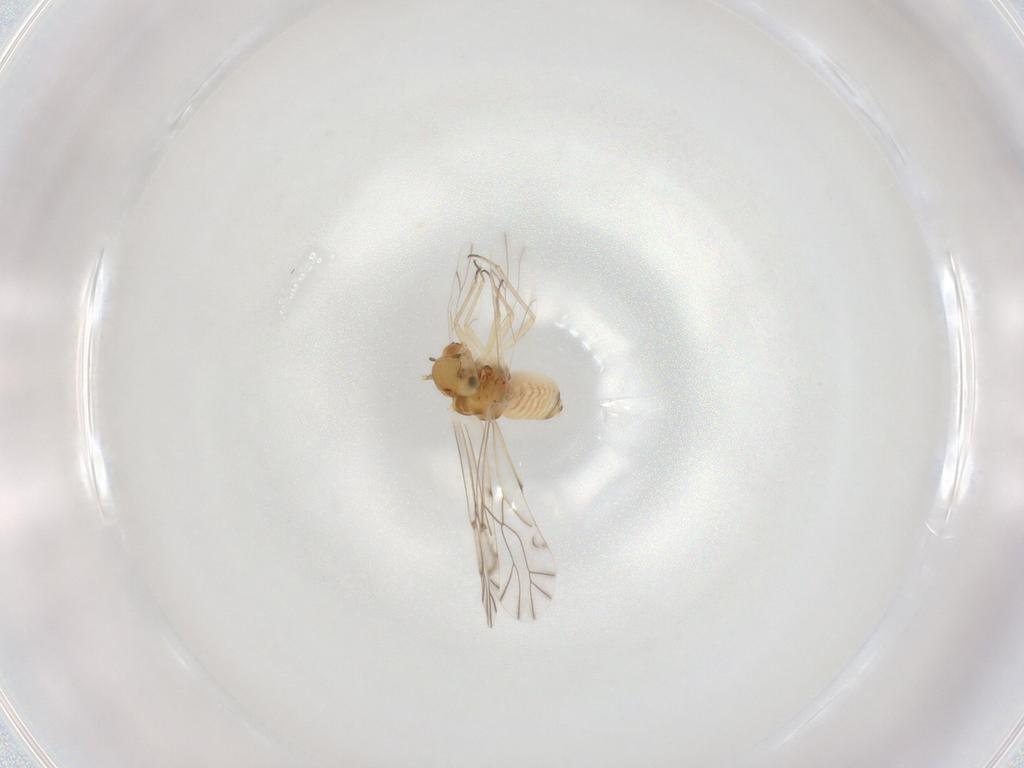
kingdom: Animalia
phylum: Arthropoda
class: Insecta
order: Psocodea
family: Lachesillidae
